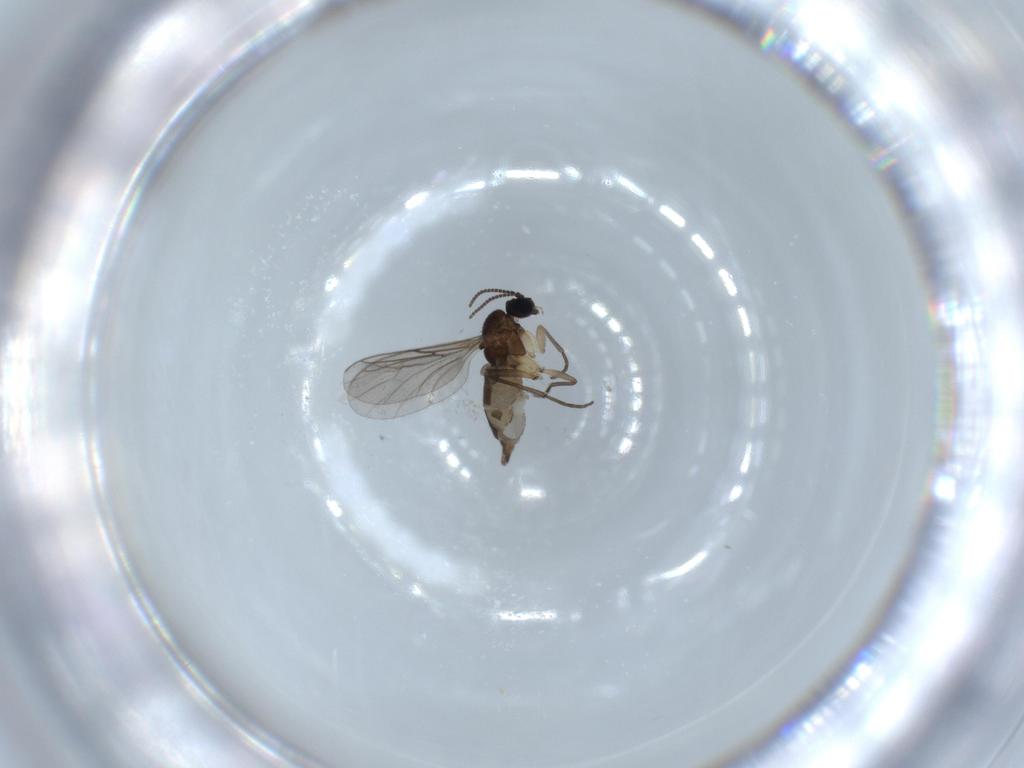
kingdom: Animalia
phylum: Arthropoda
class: Insecta
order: Diptera
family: Sciaridae
